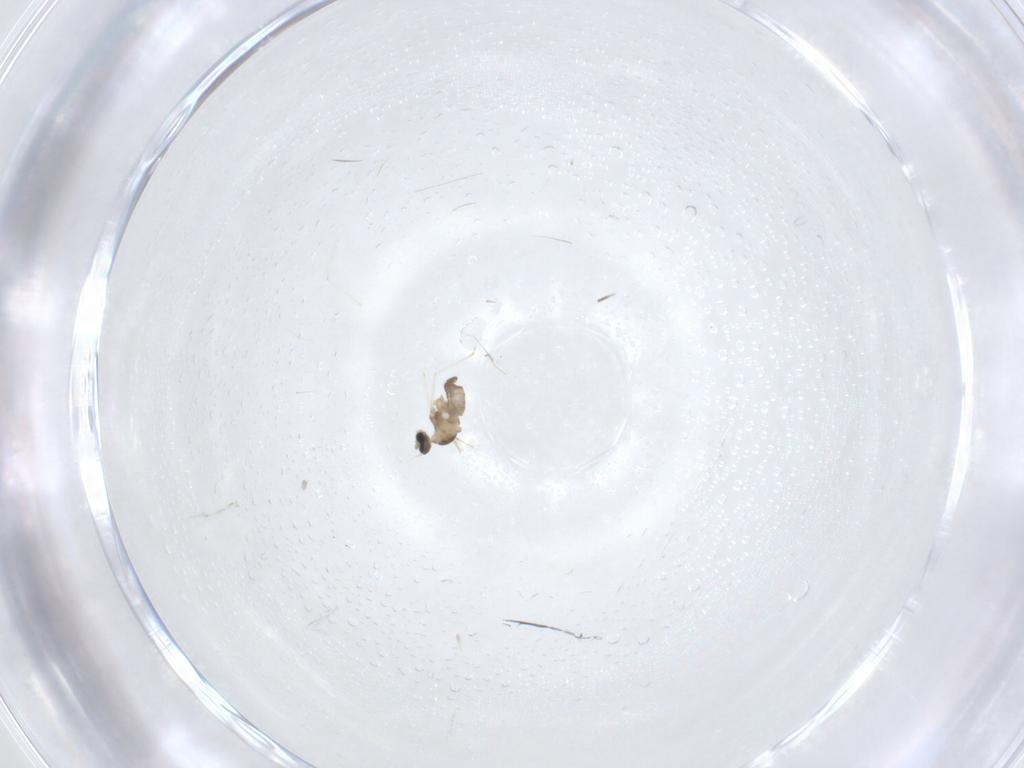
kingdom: Animalia
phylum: Arthropoda
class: Insecta
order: Diptera
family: Cecidomyiidae
